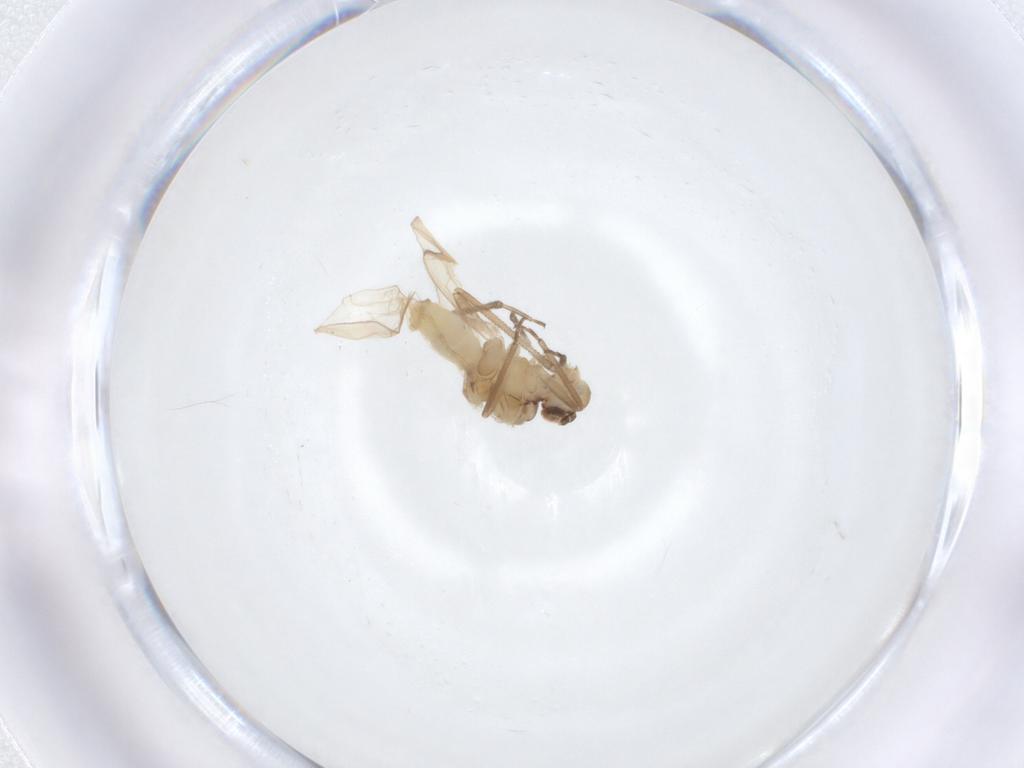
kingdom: Animalia
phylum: Arthropoda
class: Insecta
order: Psocodea
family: Caeciliusidae
